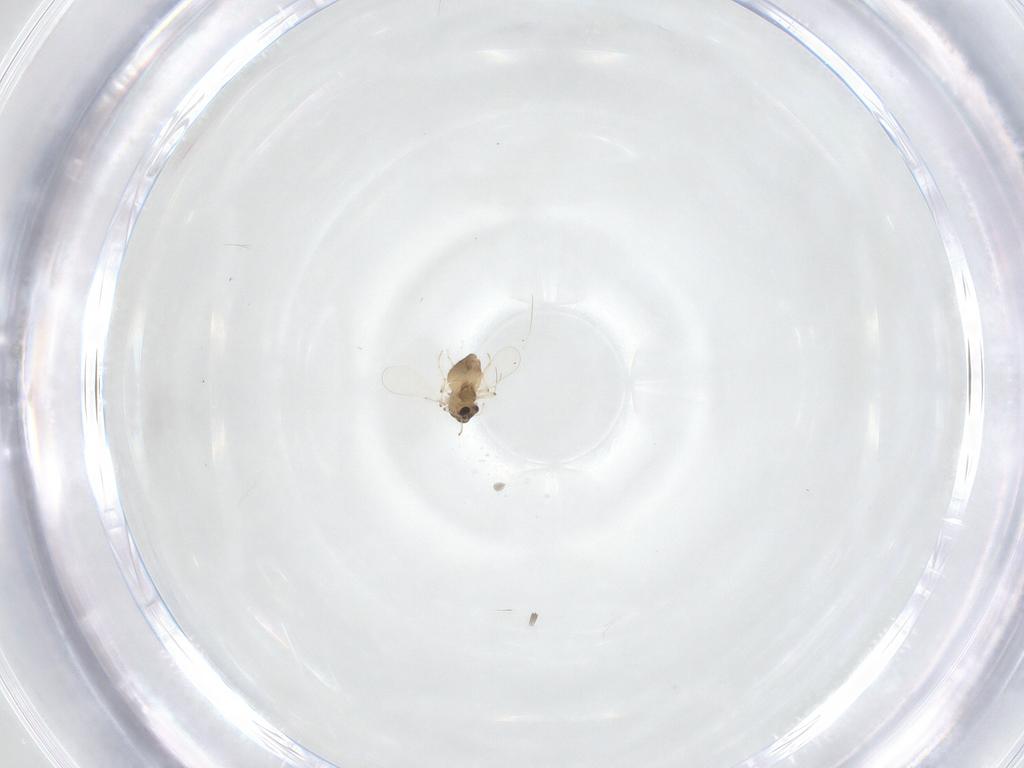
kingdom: Animalia
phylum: Arthropoda
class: Insecta
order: Diptera
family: Chironomidae
